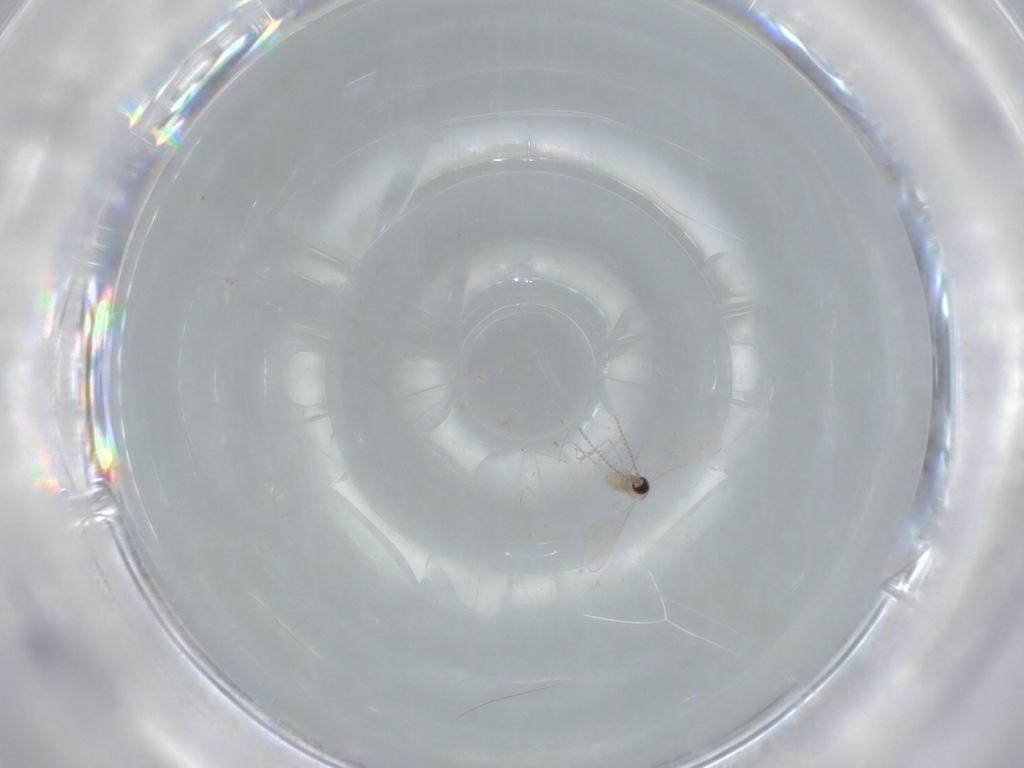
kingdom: Animalia
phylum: Arthropoda
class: Insecta
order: Diptera
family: Cecidomyiidae
